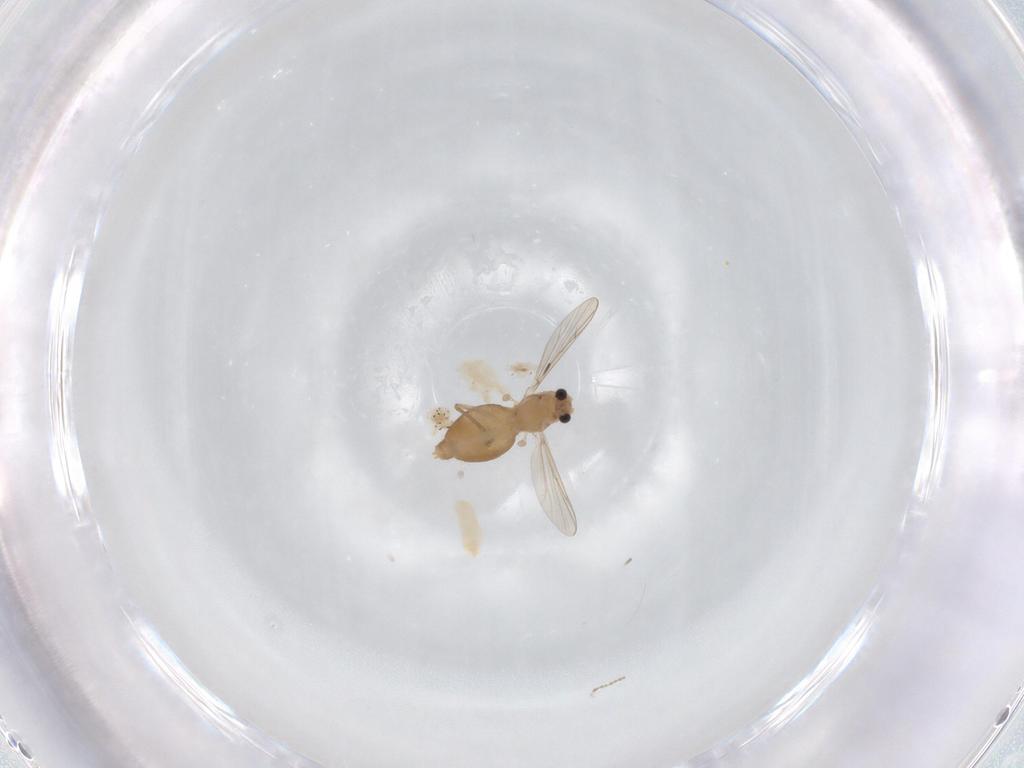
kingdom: Animalia
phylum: Arthropoda
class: Insecta
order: Diptera
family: Chironomidae
